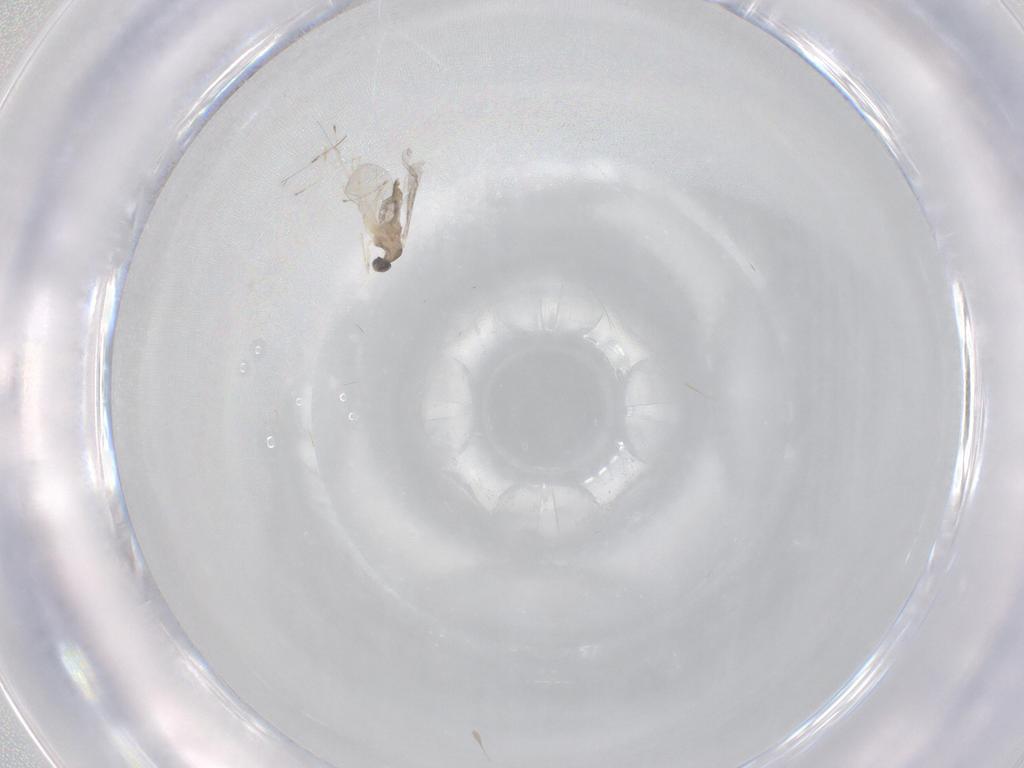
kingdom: Animalia
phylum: Arthropoda
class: Insecta
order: Diptera
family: Cecidomyiidae
